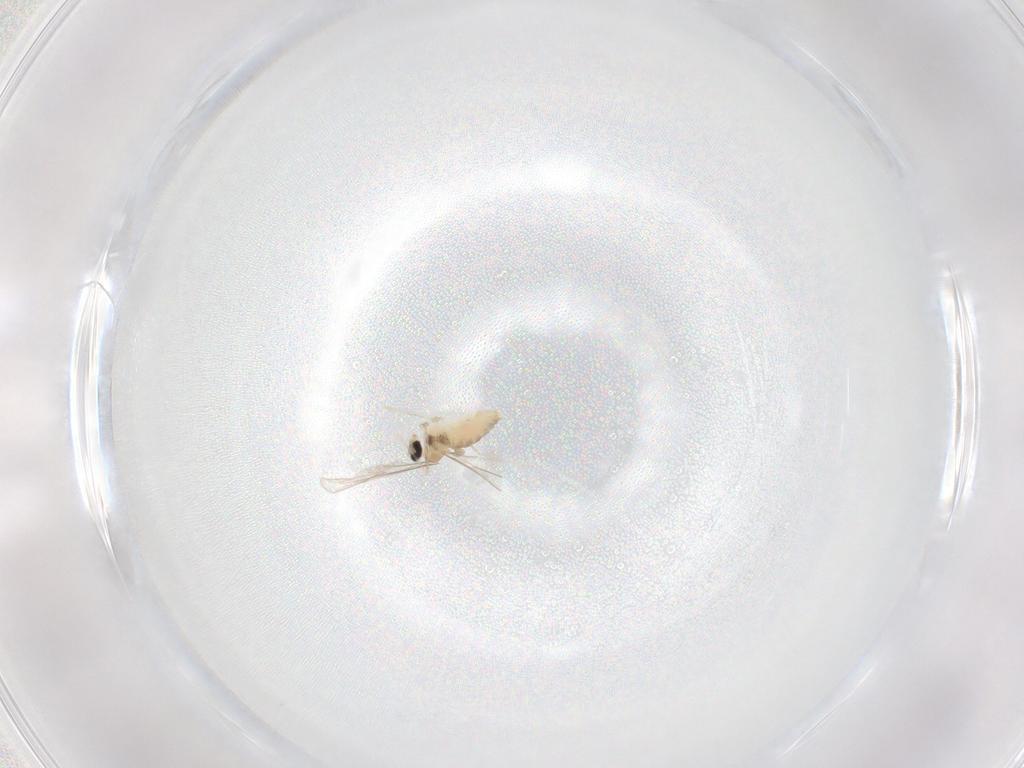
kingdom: Animalia
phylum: Arthropoda
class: Insecta
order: Diptera
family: Cecidomyiidae
